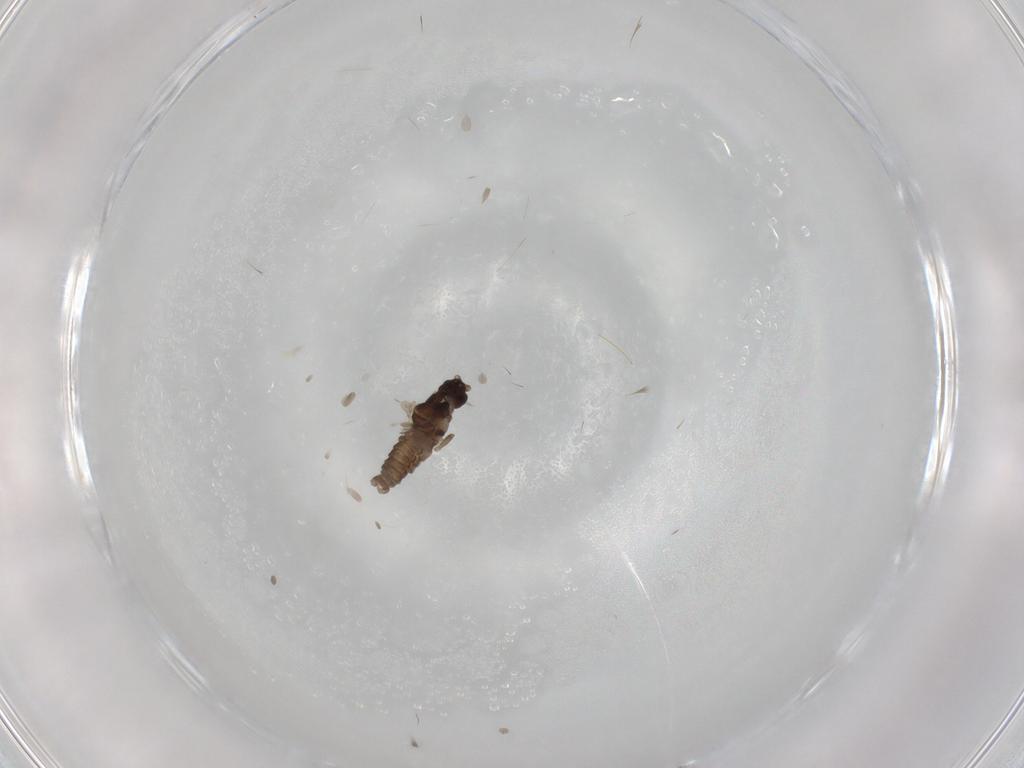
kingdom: Animalia
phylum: Arthropoda
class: Insecta
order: Diptera
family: Cecidomyiidae
